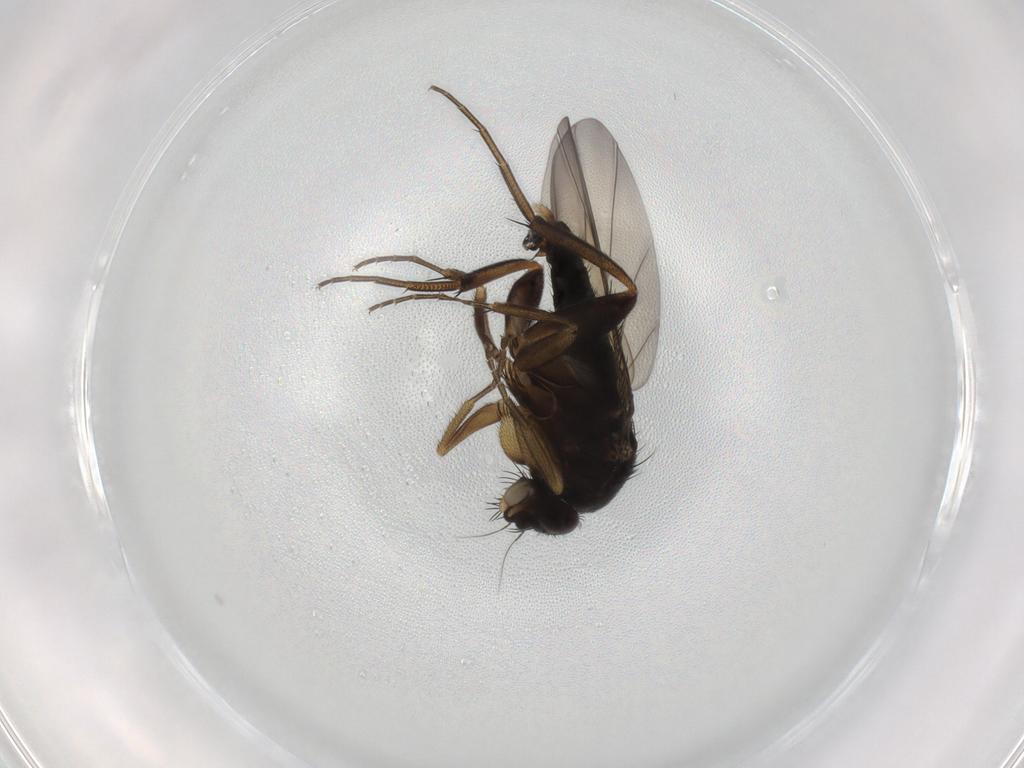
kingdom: Animalia
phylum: Arthropoda
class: Insecta
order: Diptera
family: Phoridae
